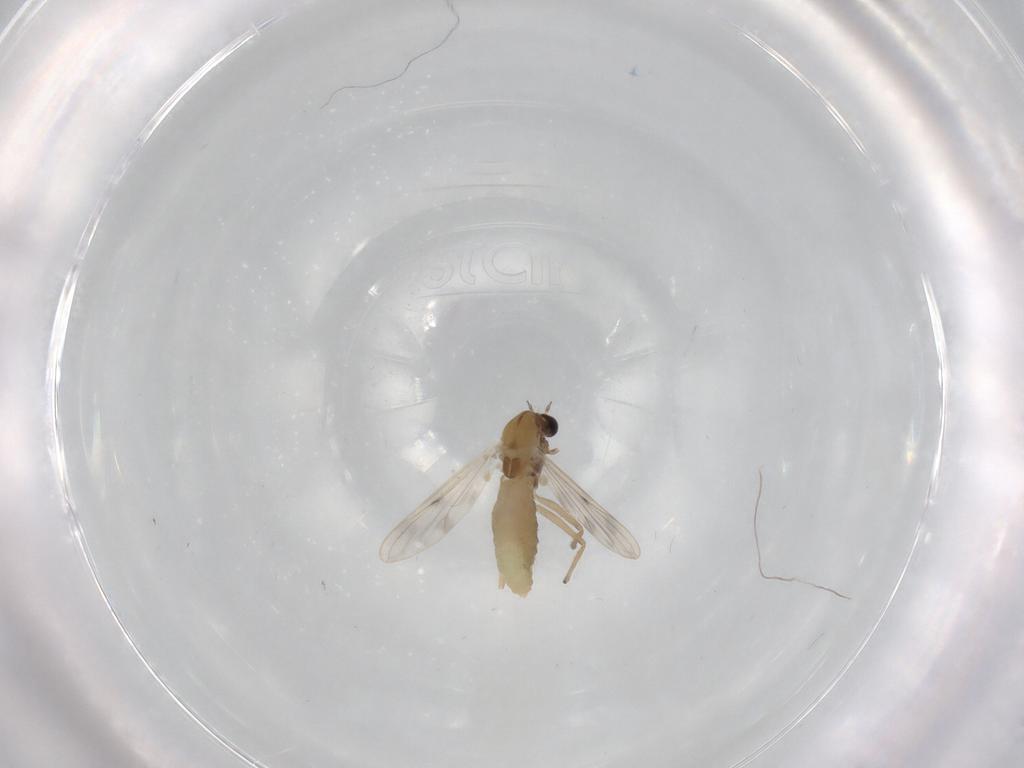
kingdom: Animalia
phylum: Arthropoda
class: Insecta
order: Diptera
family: Chironomidae
